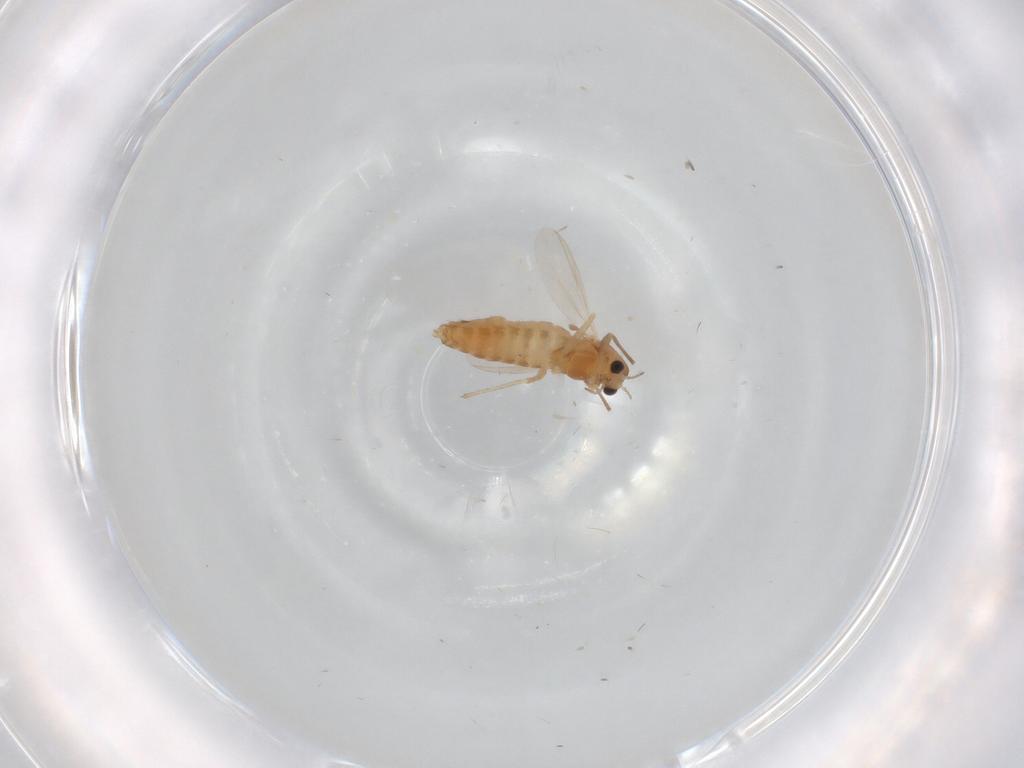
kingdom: Animalia
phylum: Arthropoda
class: Insecta
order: Diptera
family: Chironomidae
